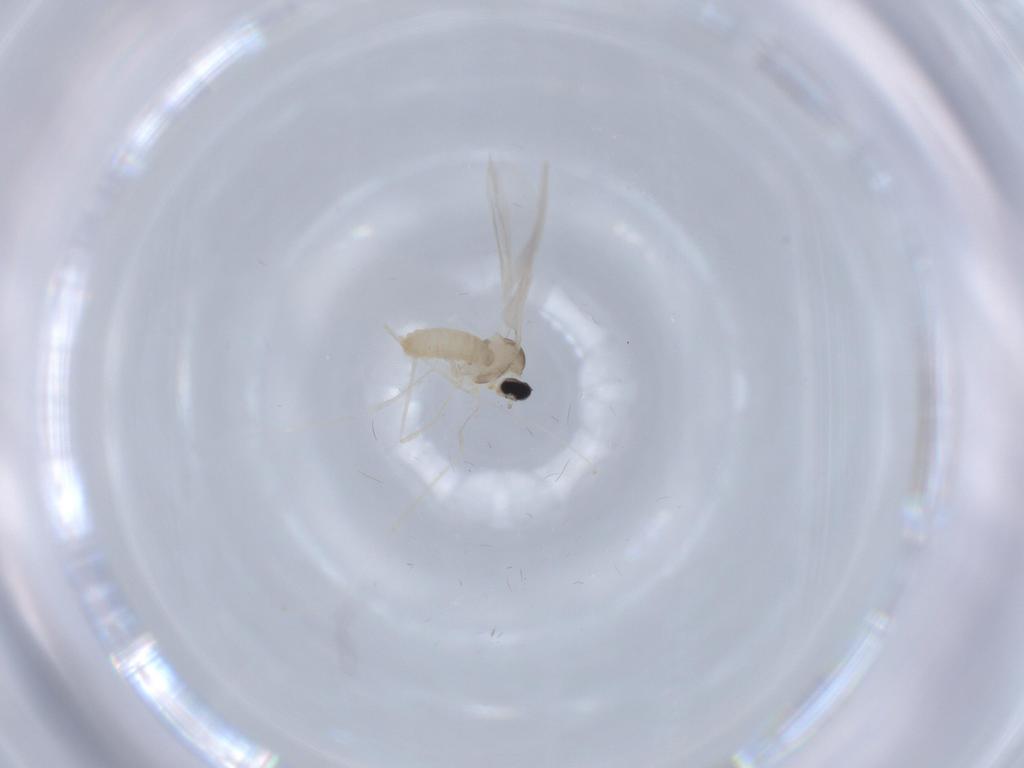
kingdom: Animalia
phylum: Arthropoda
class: Insecta
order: Diptera
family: Cecidomyiidae
